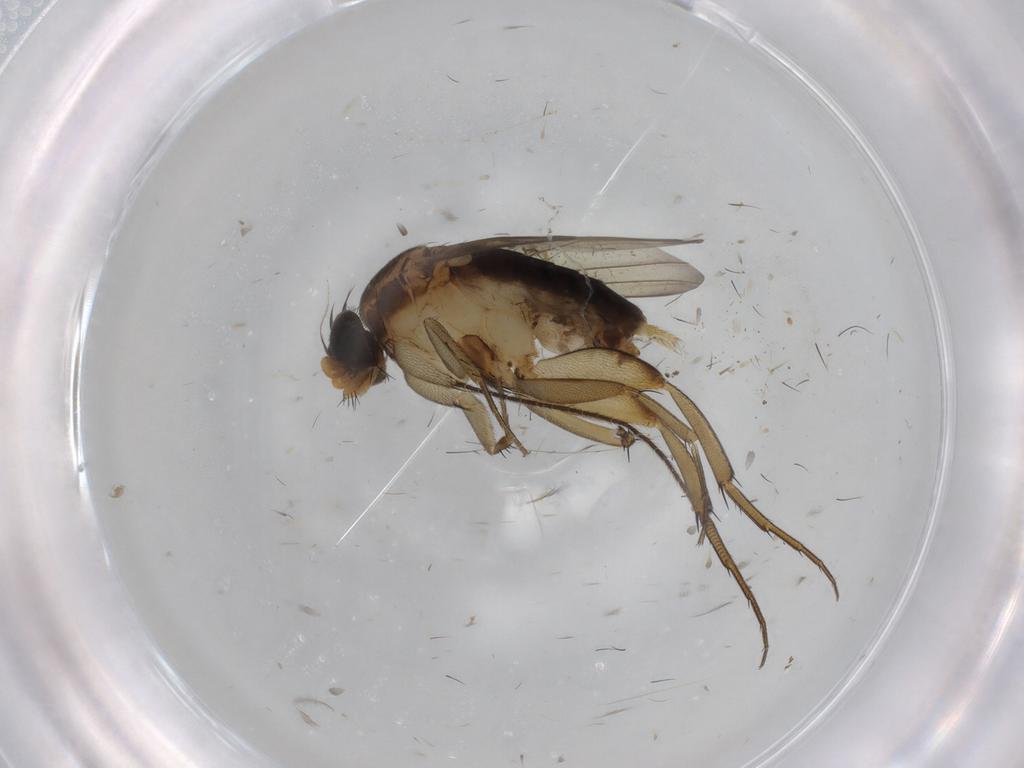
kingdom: Animalia
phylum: Arthropoda
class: Insecta
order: Diptera
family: Phoridae
